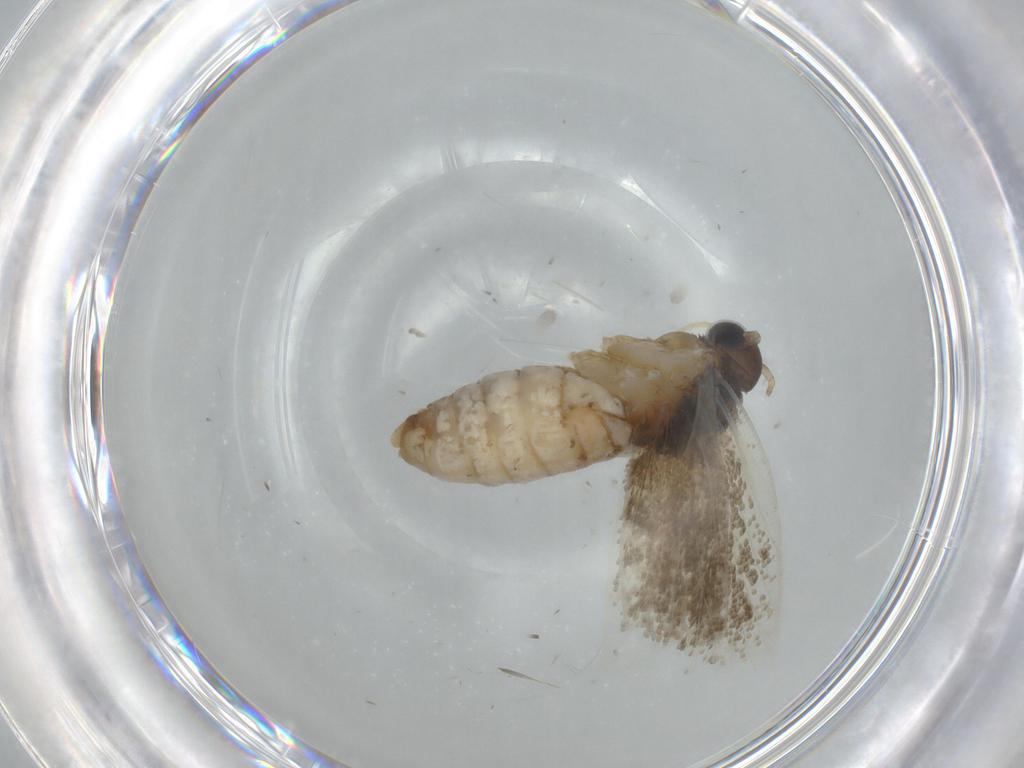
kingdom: Animalia
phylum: Arthropoda
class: Insecta
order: Lepidoptera
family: Tortricidae
